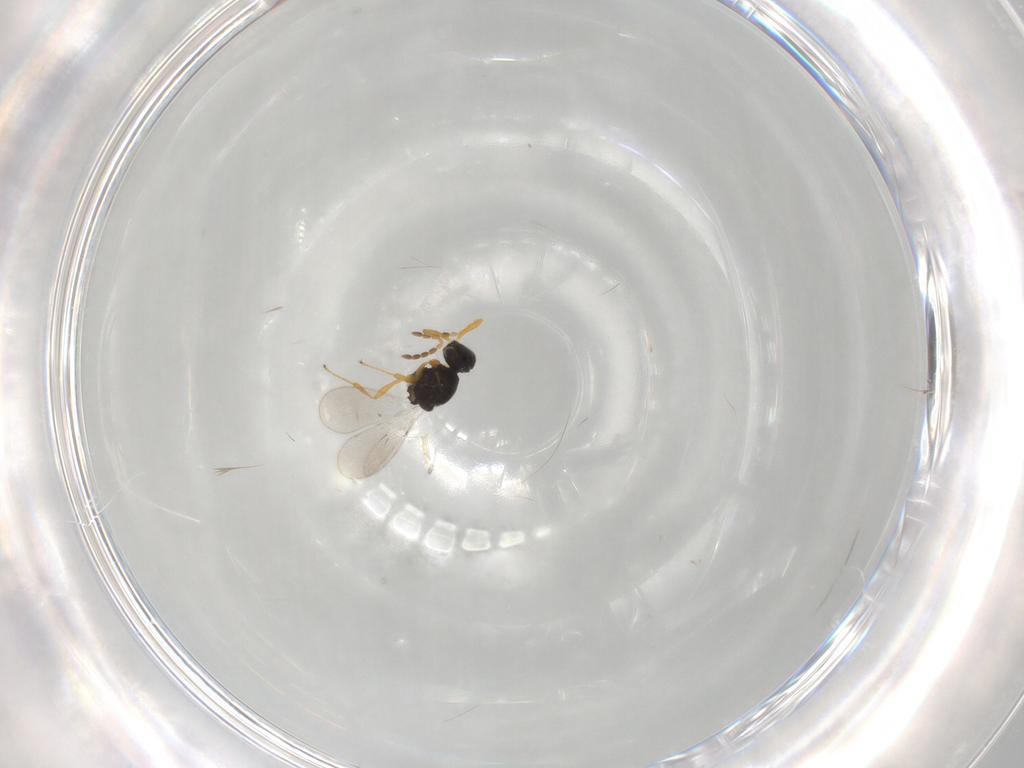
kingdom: Animalia
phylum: Arthropoda
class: Insecta
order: Hymenoptera
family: Platygastridae
